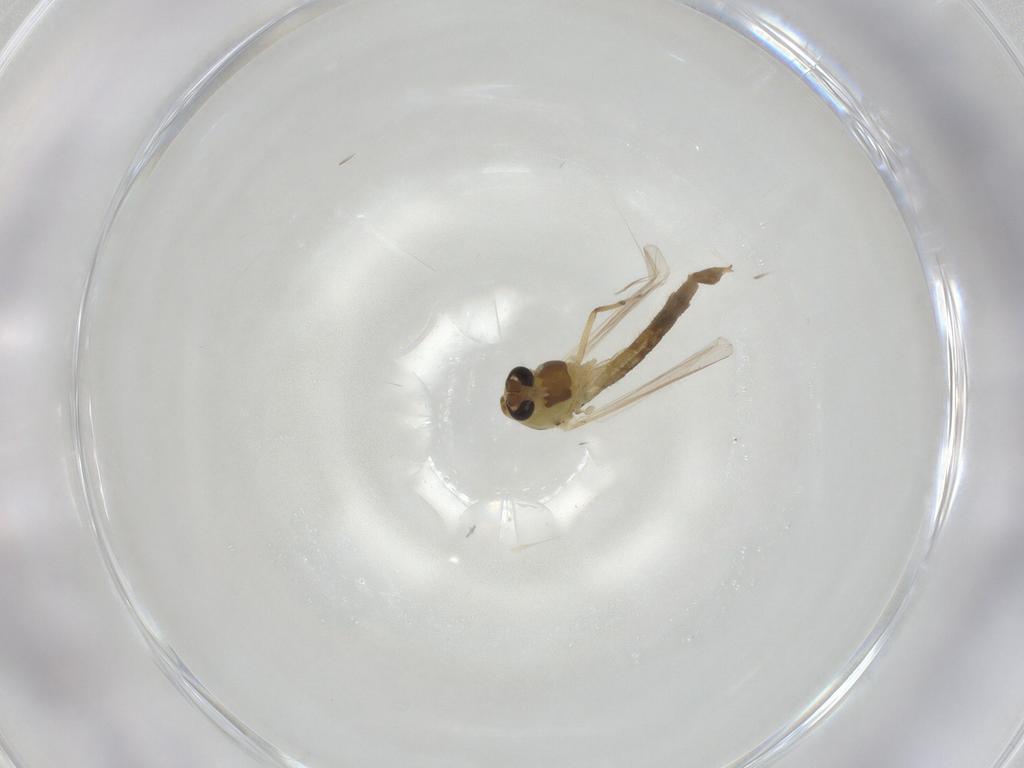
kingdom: Animalia
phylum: Arthropoda
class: Insecta
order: Diptera
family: Chironomidae
